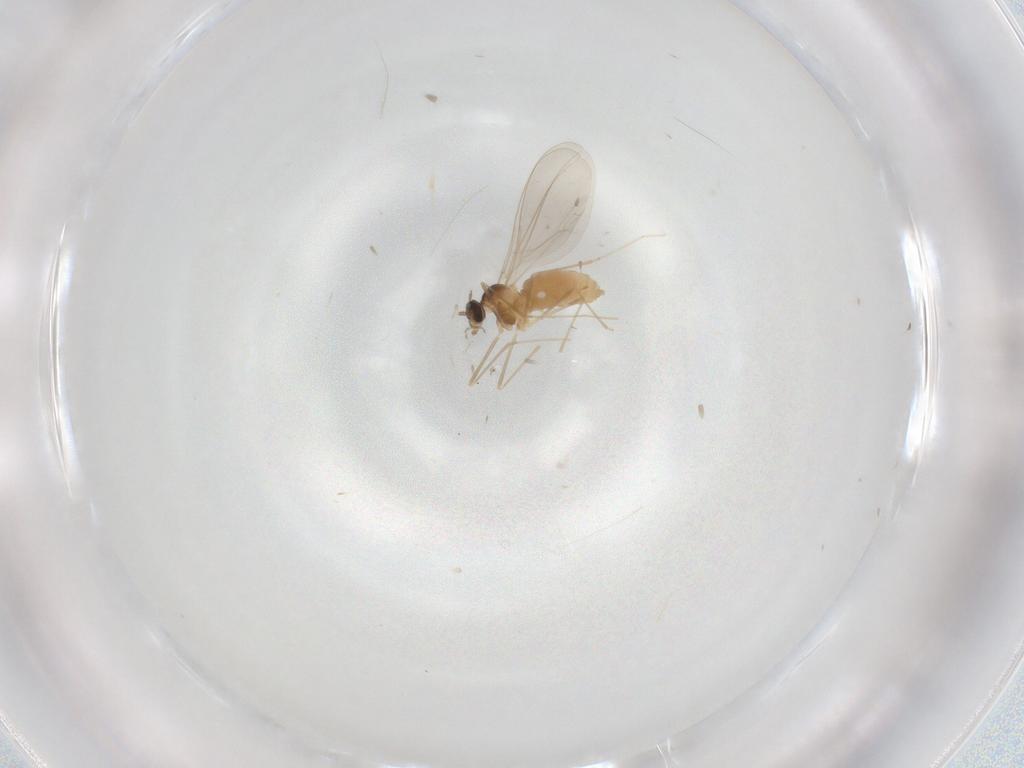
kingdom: Animalia
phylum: Arthropoda
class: Insecta
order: Diptera
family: Cecidomyiidae
